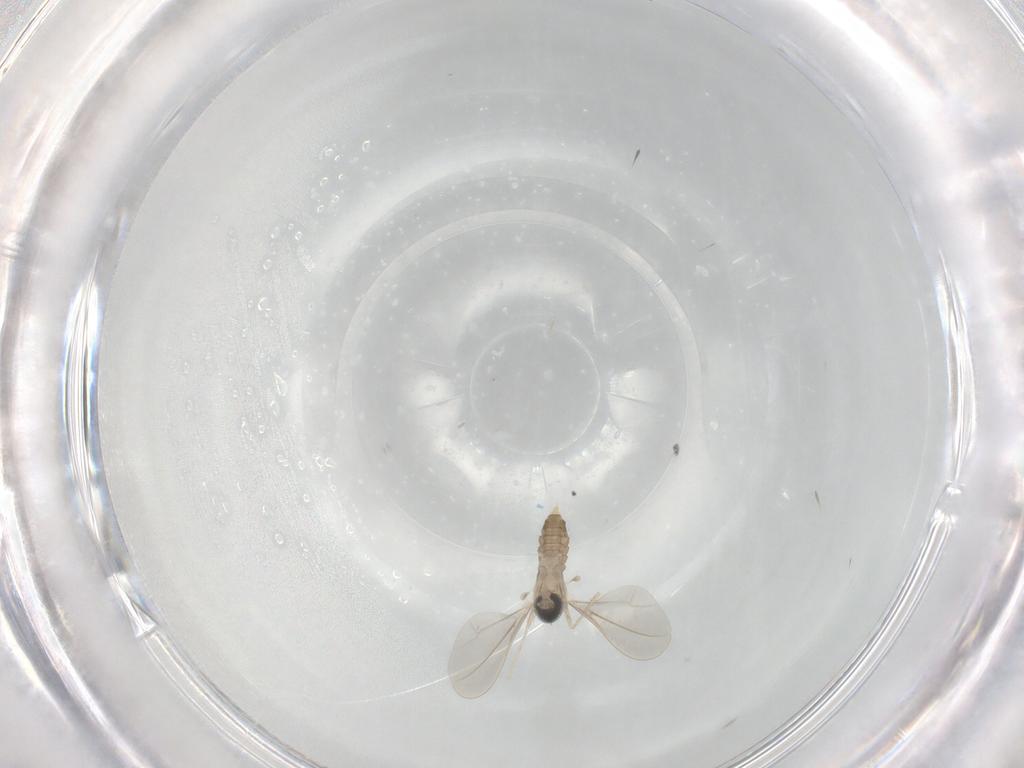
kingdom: Animalia
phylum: Arthropoda
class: Insecta
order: Diptera
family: Cecidomyiidae
